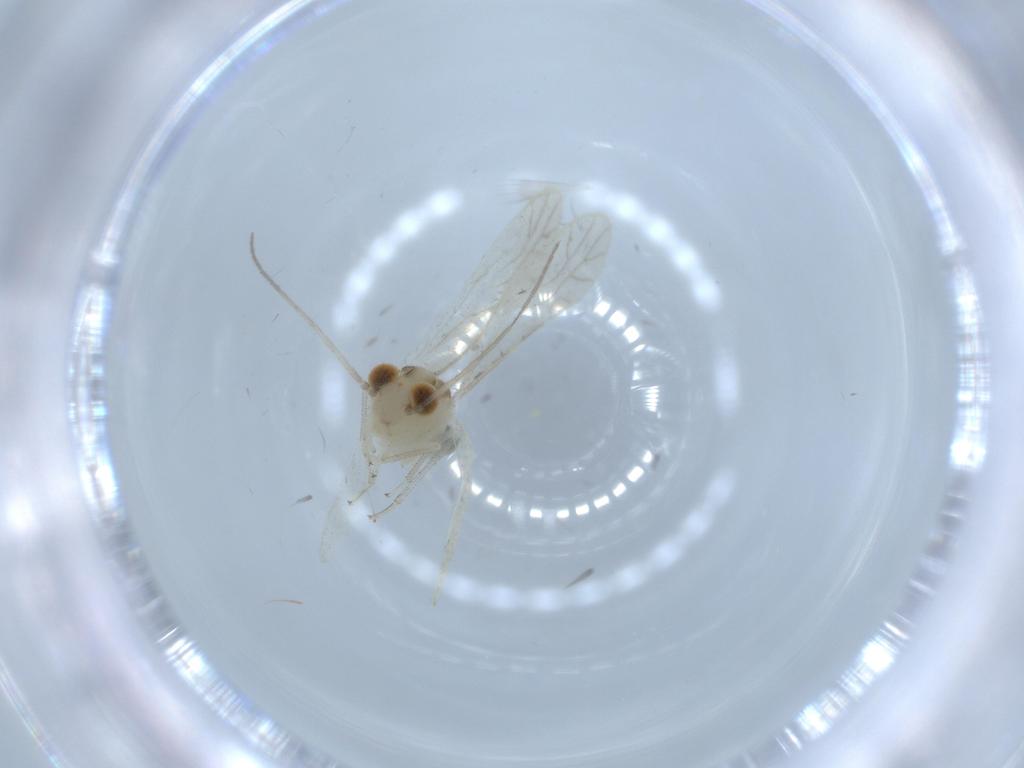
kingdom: Animalia
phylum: Arthropoda
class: Insecta
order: Psocodea
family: Caeciliusidae
